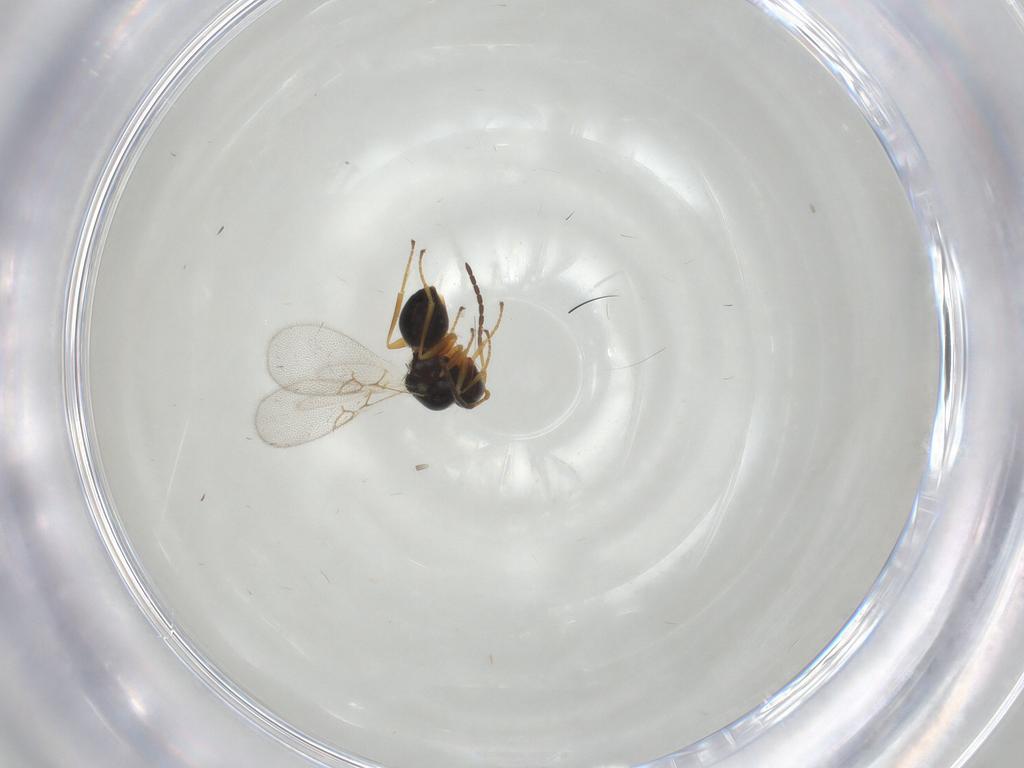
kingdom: Animalia
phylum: Arthropoda
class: Insecta
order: Hymenoptera
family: Figitidae
